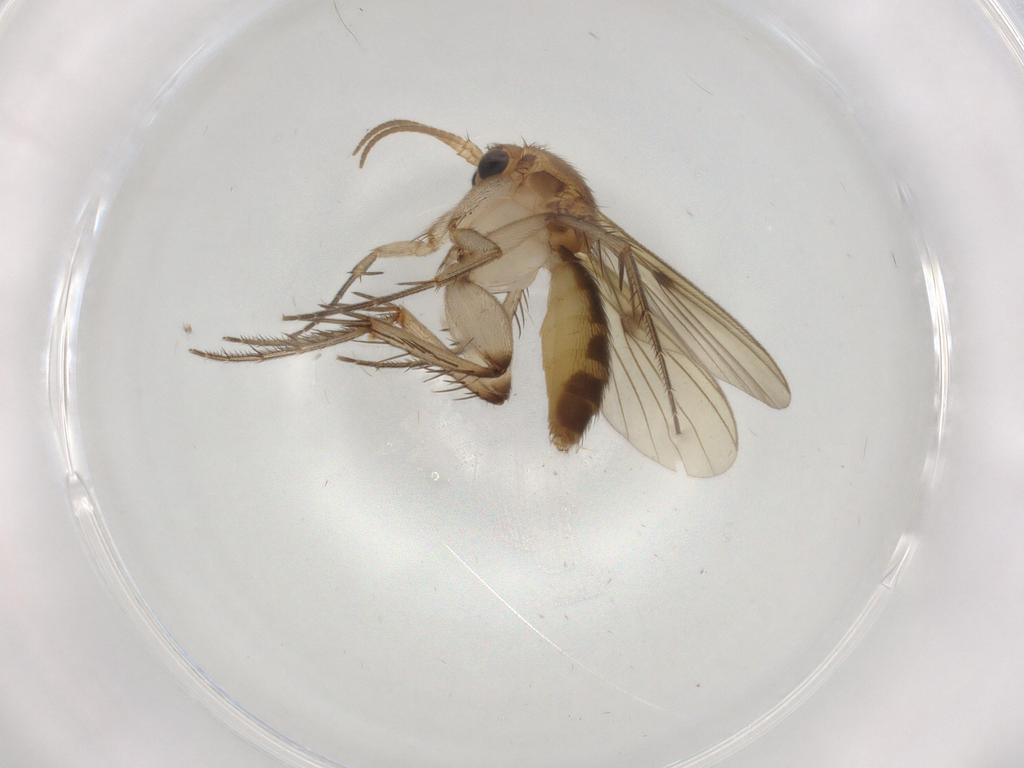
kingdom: Animalia
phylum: Arthropoda
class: Insecta
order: Diptera
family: Chironomidae
